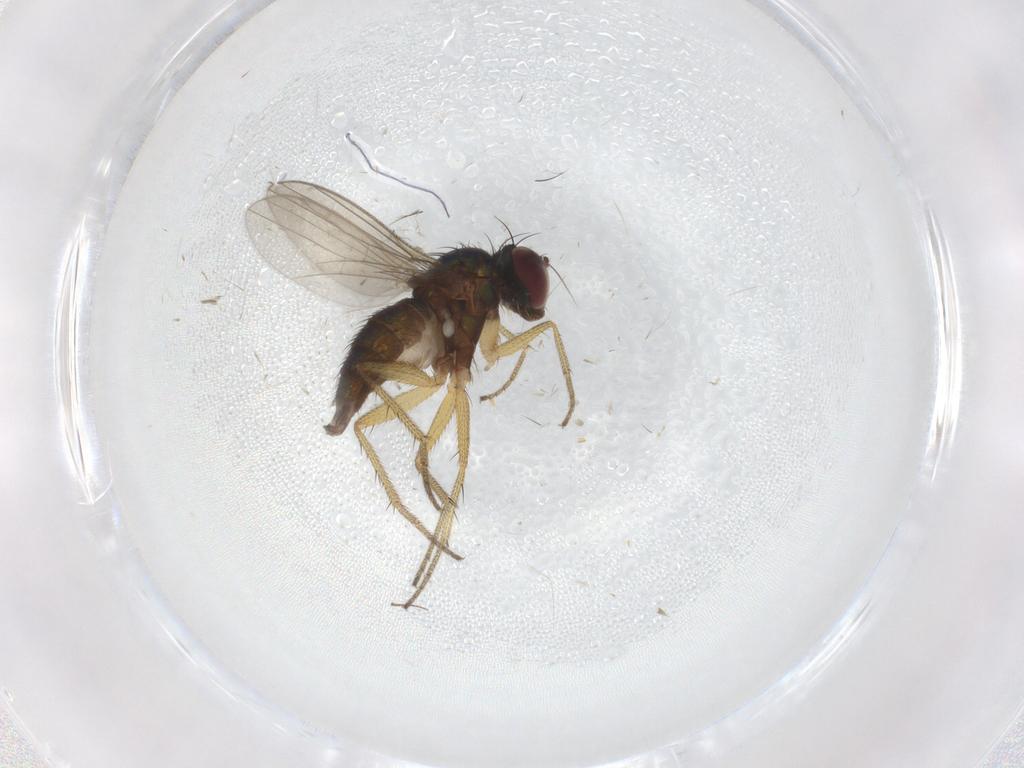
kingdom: Animalia
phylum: Arthropoda
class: Insecta
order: Diptera
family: Dolichopodidae
